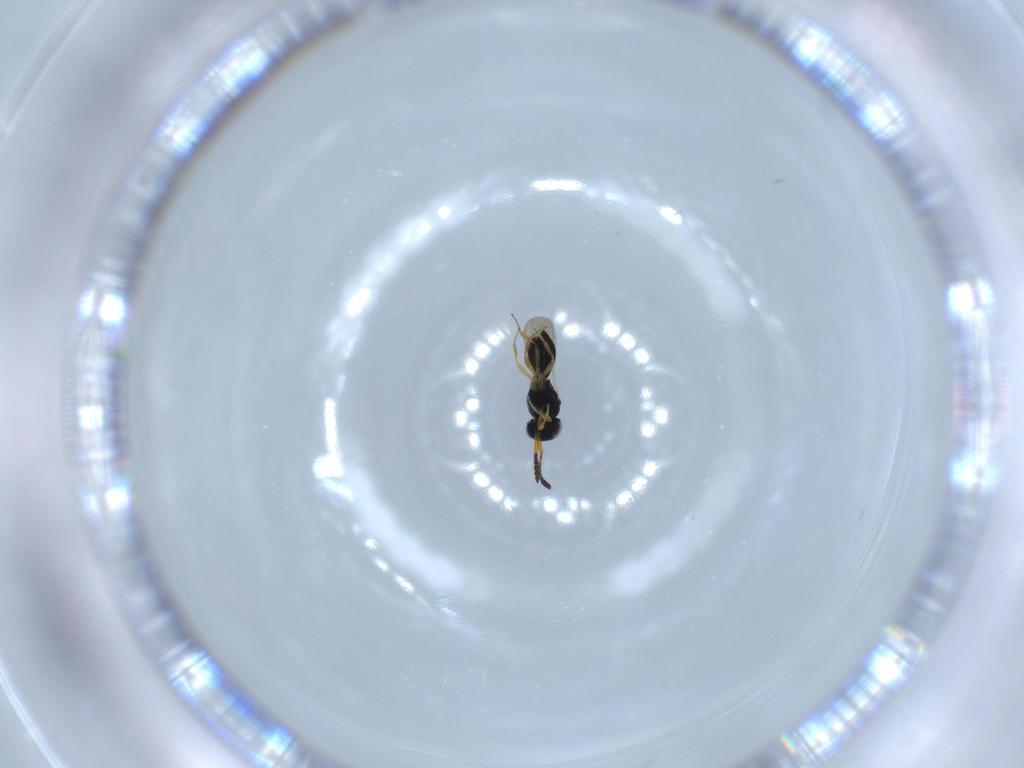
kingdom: Animalia
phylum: Arthropoda
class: Insecta
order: Hymenoptera
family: Scelionidae
